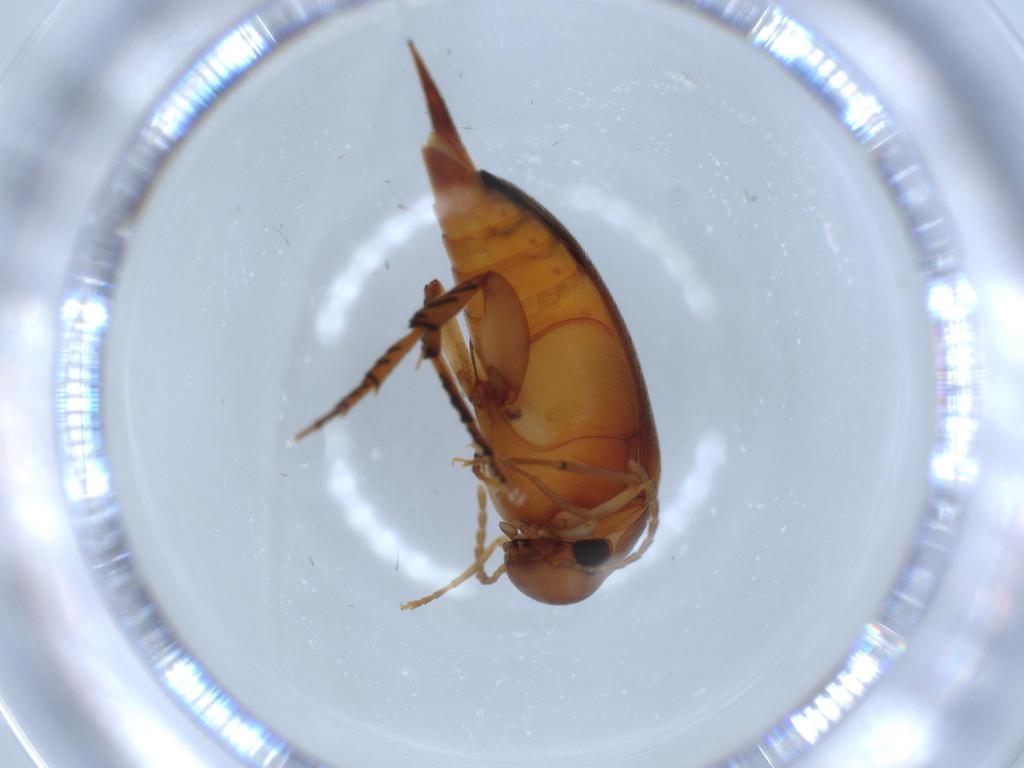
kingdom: Animalia
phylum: Arthropoda
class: Insecta
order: Coleoptera
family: Mordellidae
